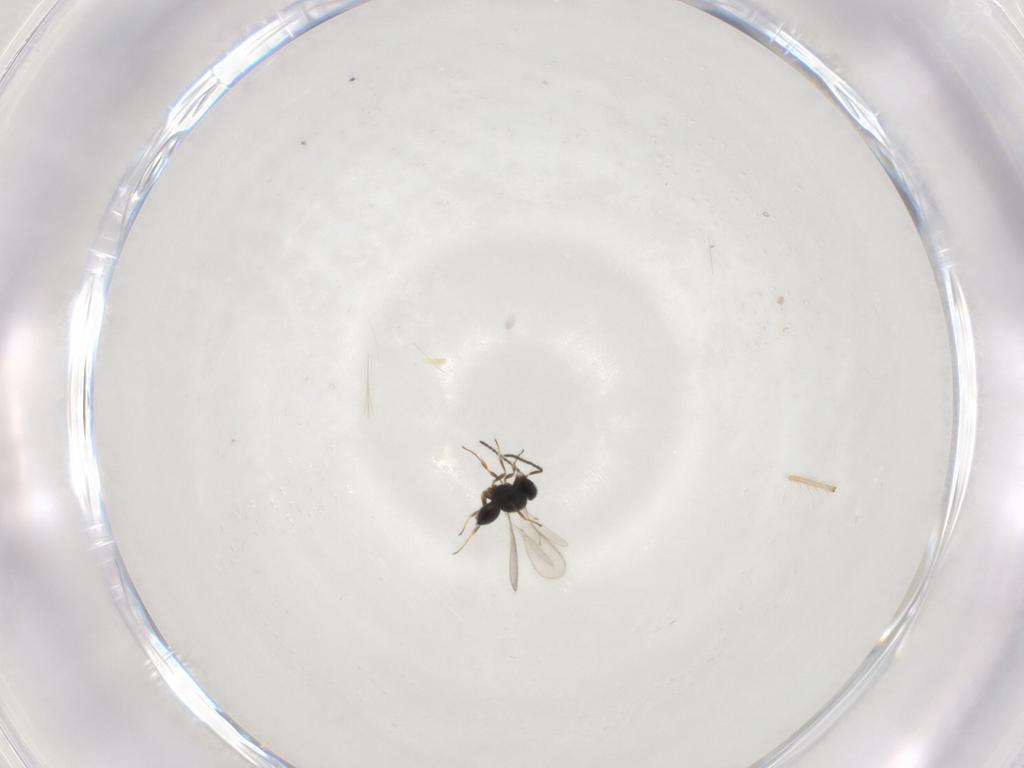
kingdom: Animalia
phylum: Arthropoda
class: Insecta
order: Hymenoptera
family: Scelionidae
